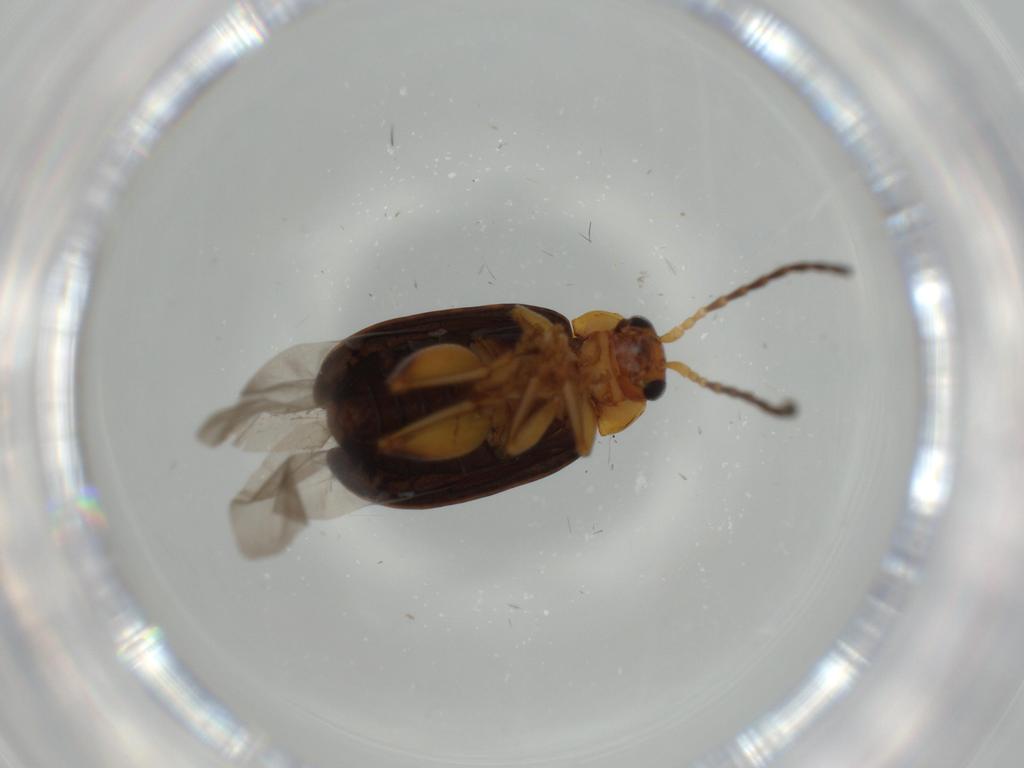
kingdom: Animalia
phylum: Arthropoda
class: Insecta
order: Coleoptera
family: Chrysomelidae
